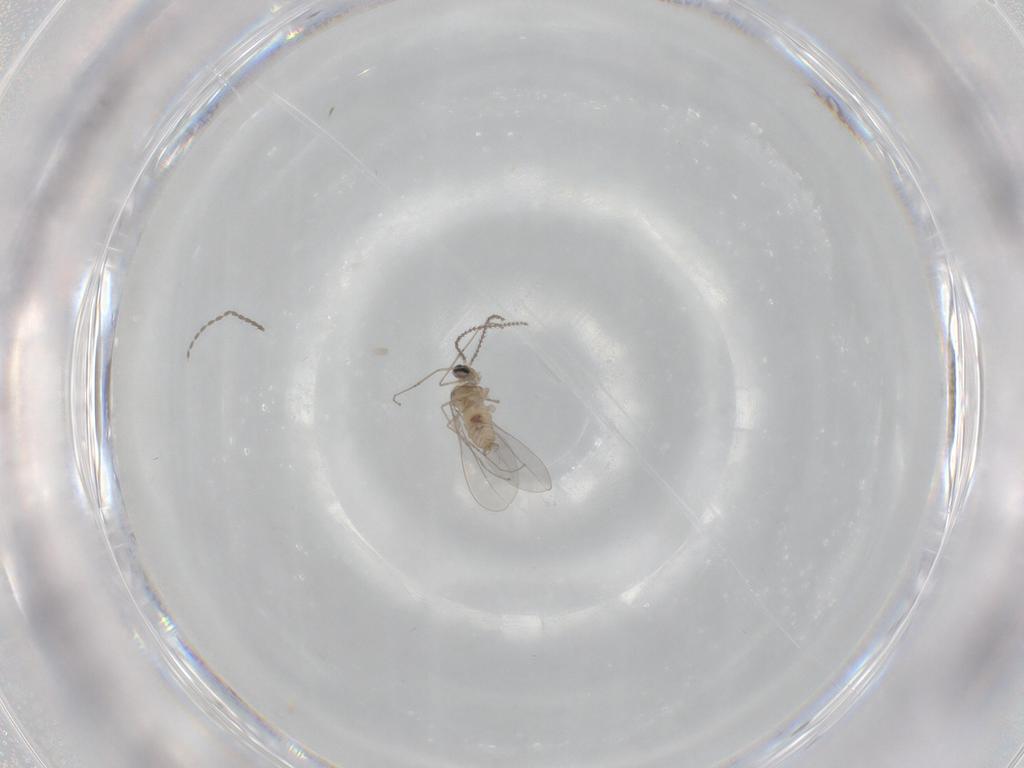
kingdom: Animalia
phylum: Arthropoda
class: Insecta
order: Diptera
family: Cecidomyiidae
